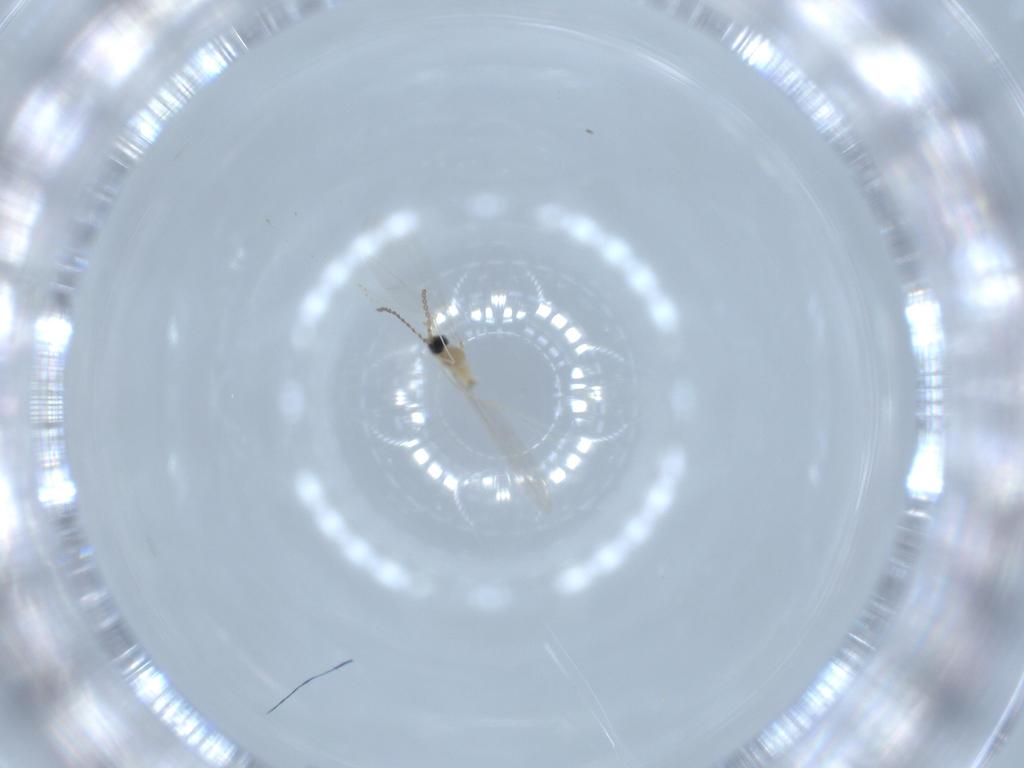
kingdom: Animalia
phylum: Arthropoda
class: Insecta
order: Diptera
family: Cecidomyiidae
